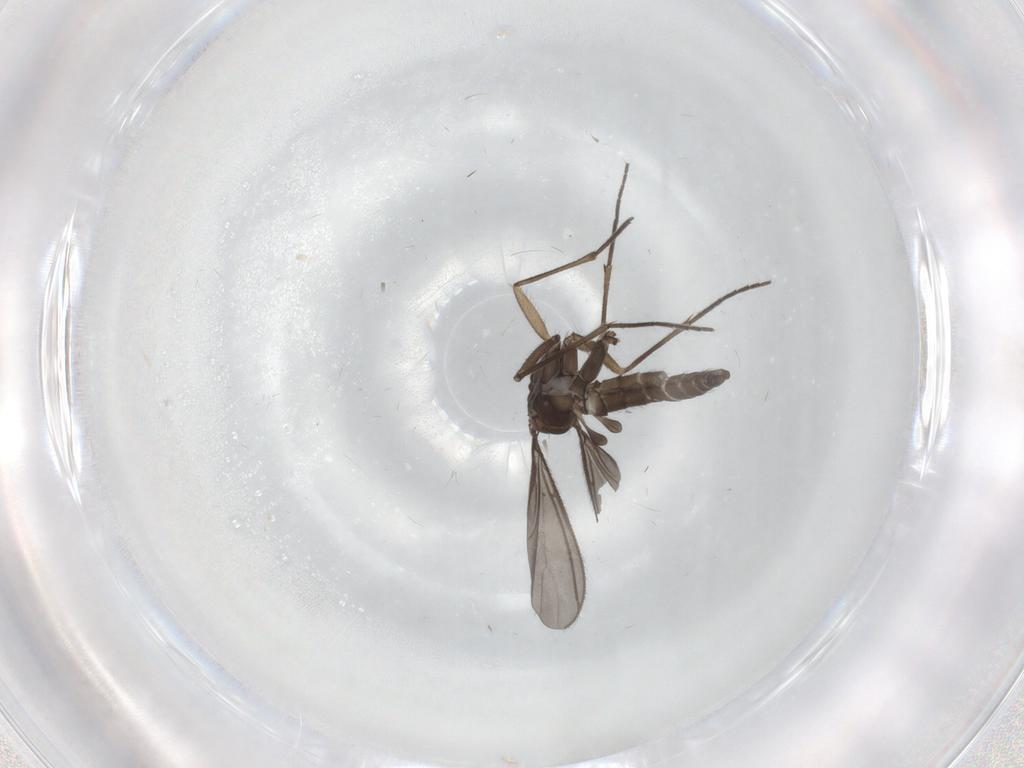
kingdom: Animalia
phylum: Arthropoda
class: Insecta
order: Diptera
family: Sciaridae
